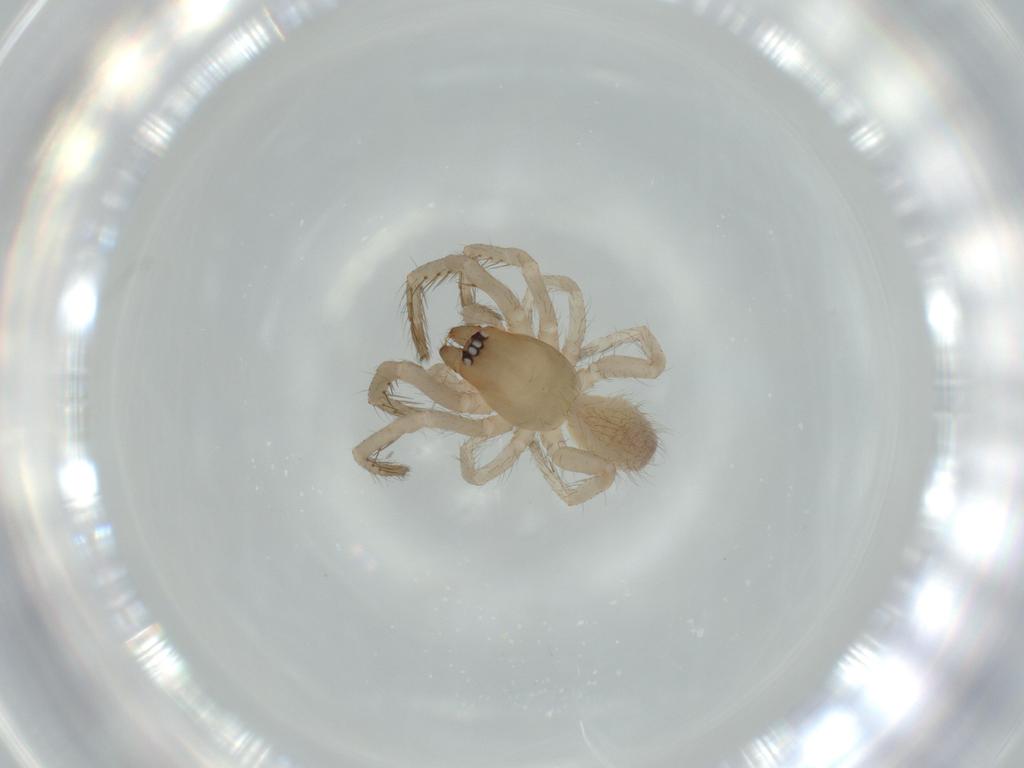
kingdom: Animalia
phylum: Arthropoda
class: Arachnida
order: Araneae
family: Segestriidae
